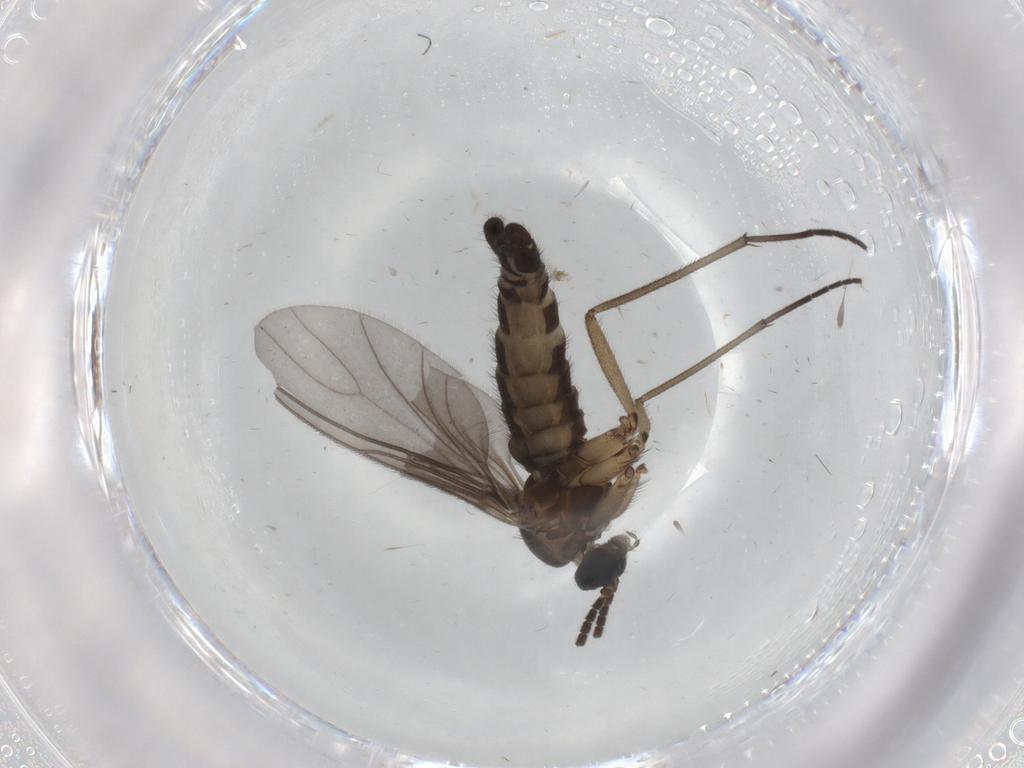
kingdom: Animalia
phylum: Arthropoda
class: Insecta
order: Diptera
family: Sciaridae
